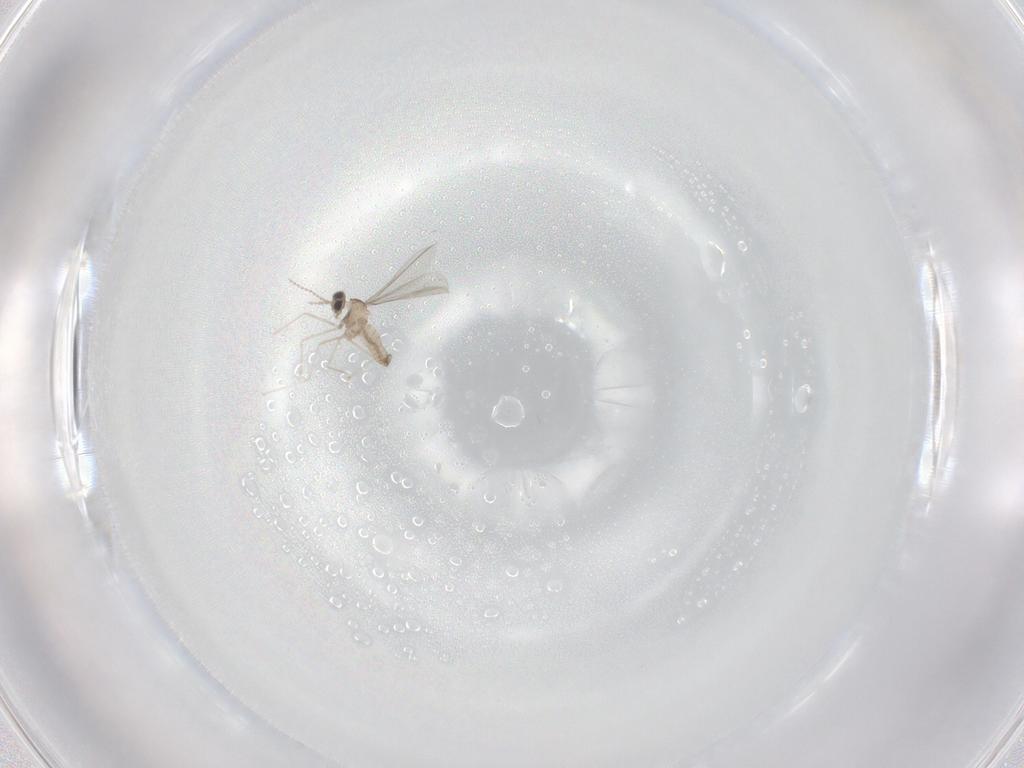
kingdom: Animalia
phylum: Arthropoda
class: Insecta
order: Diptera
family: Cecidomyiidae
